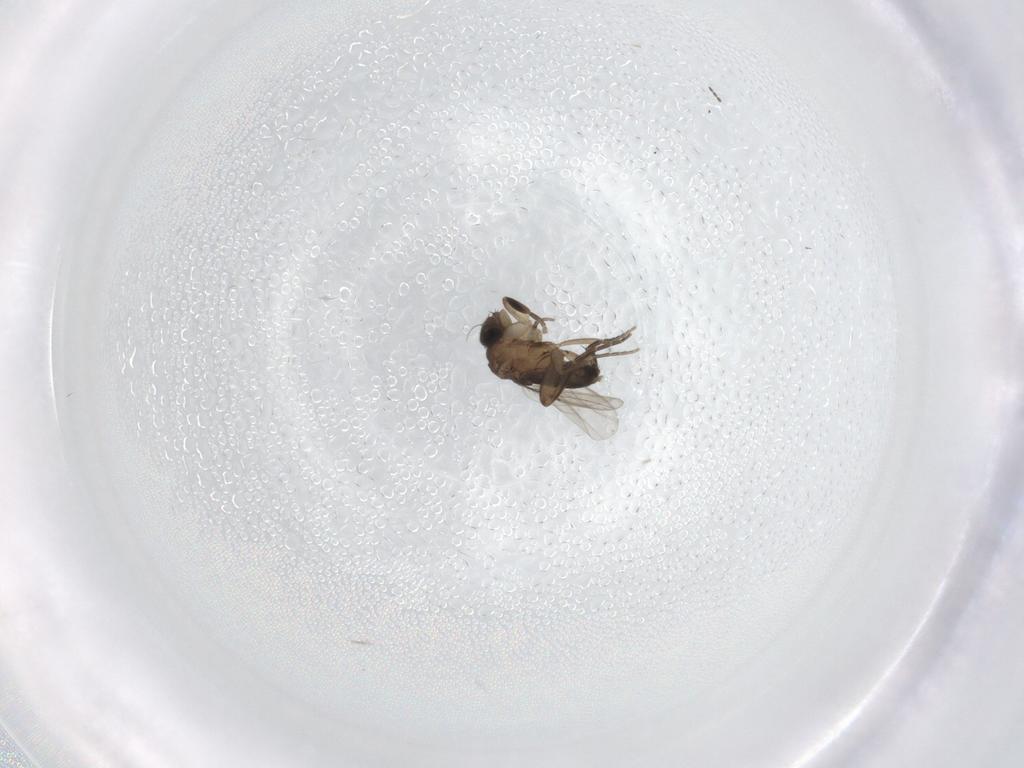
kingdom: Animalia
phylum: Arthropoda
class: Insecta
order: Diptera
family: Phoridae
